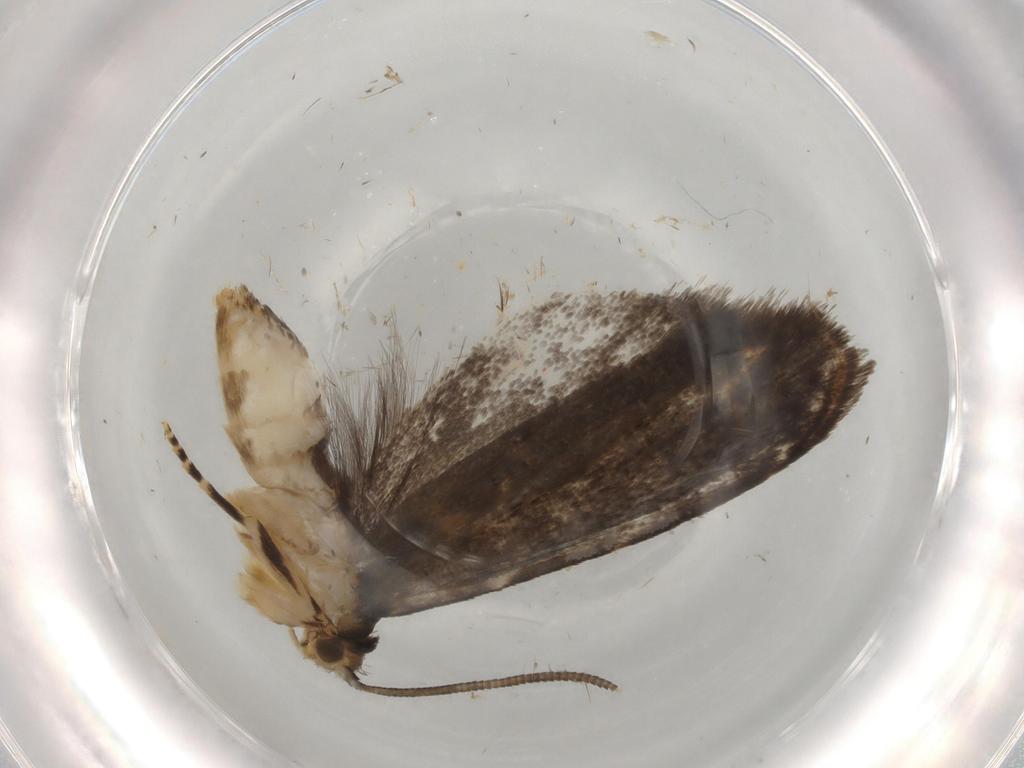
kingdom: Animalia
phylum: Arthropoda
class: Insecta
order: Lepidoptera
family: Dryadaulidae
